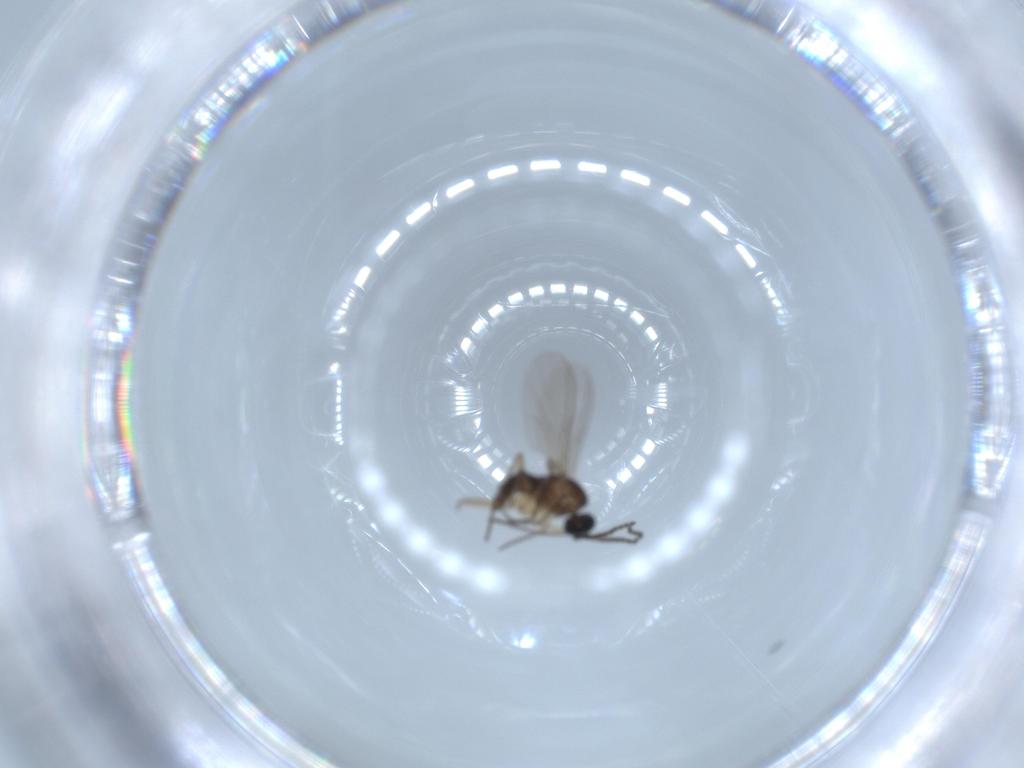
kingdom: Animalia
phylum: Arthropoda
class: Insecta
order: Diptera
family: Sciaridae
